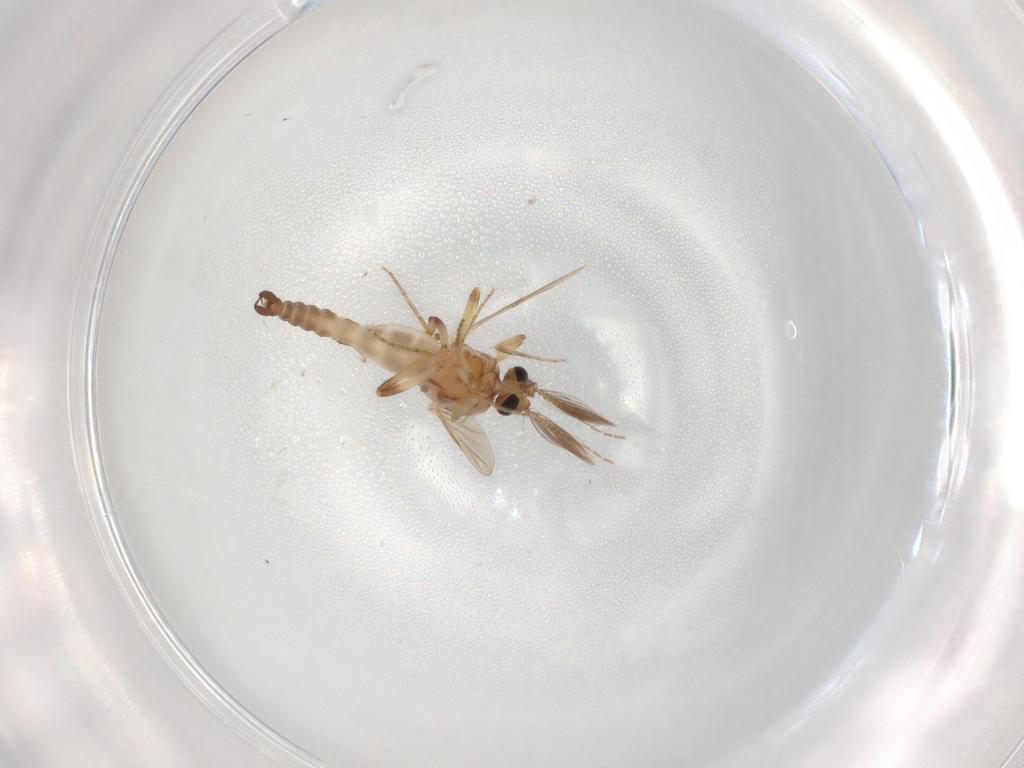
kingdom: Animalia
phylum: Arthropoda
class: Insecta
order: Diptera
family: Ceratopogonidae
